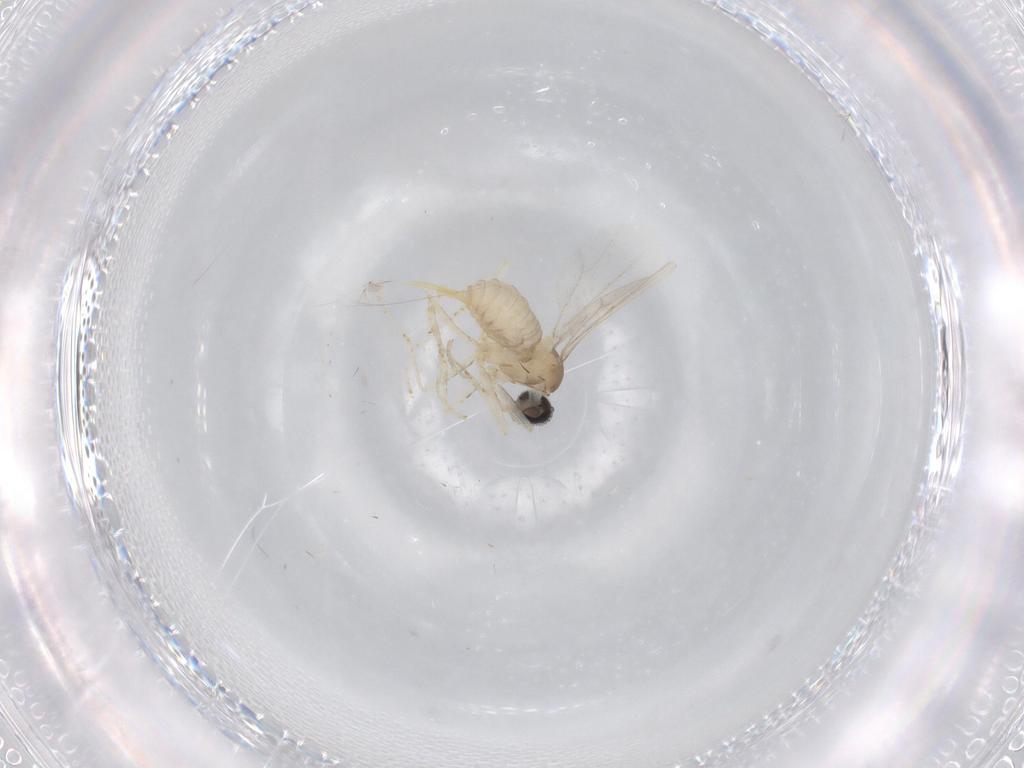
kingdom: Animalia
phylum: Arthropoda
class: Insecta
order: Diptera
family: Cecidomyiidae
